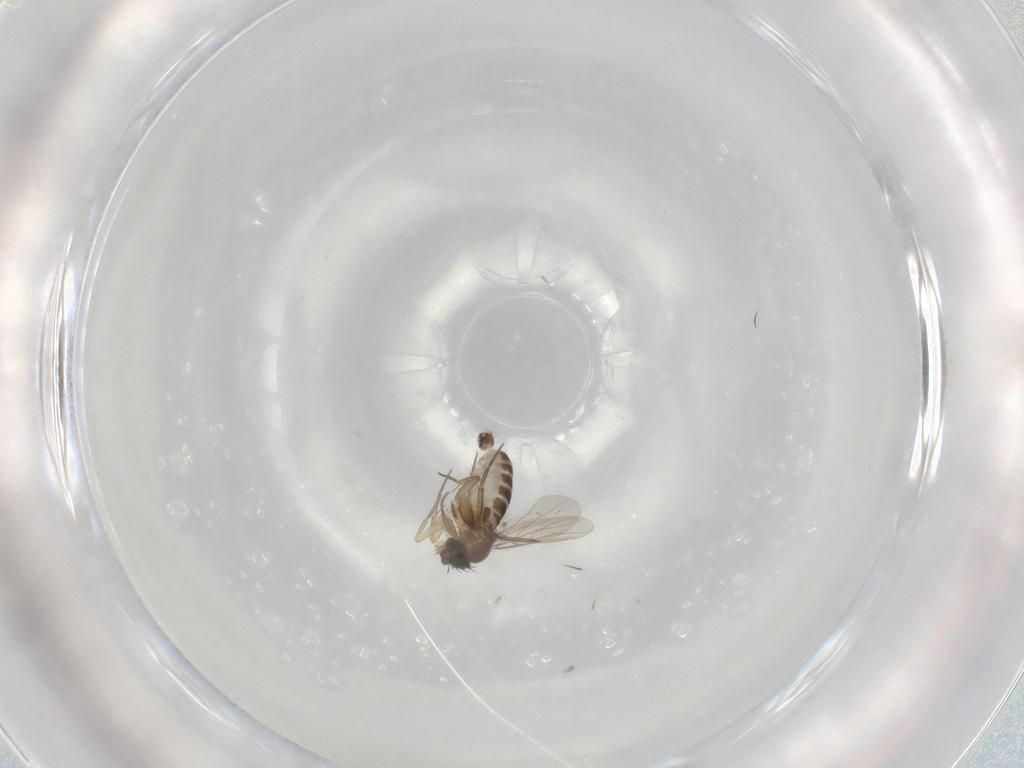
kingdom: Animalia
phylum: Arthropoda
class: Insecta
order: Diptera
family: Phoridae
